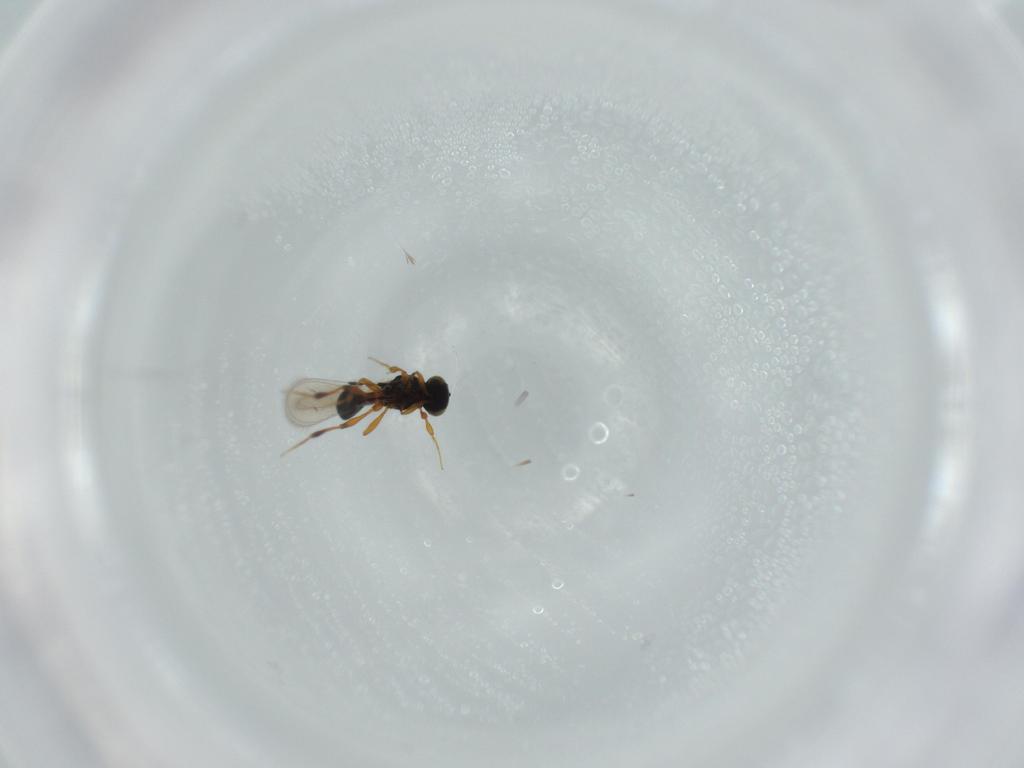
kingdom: Animalia
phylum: Arthropoda
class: Insecta
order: Hymenoptera
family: Platygastridae
